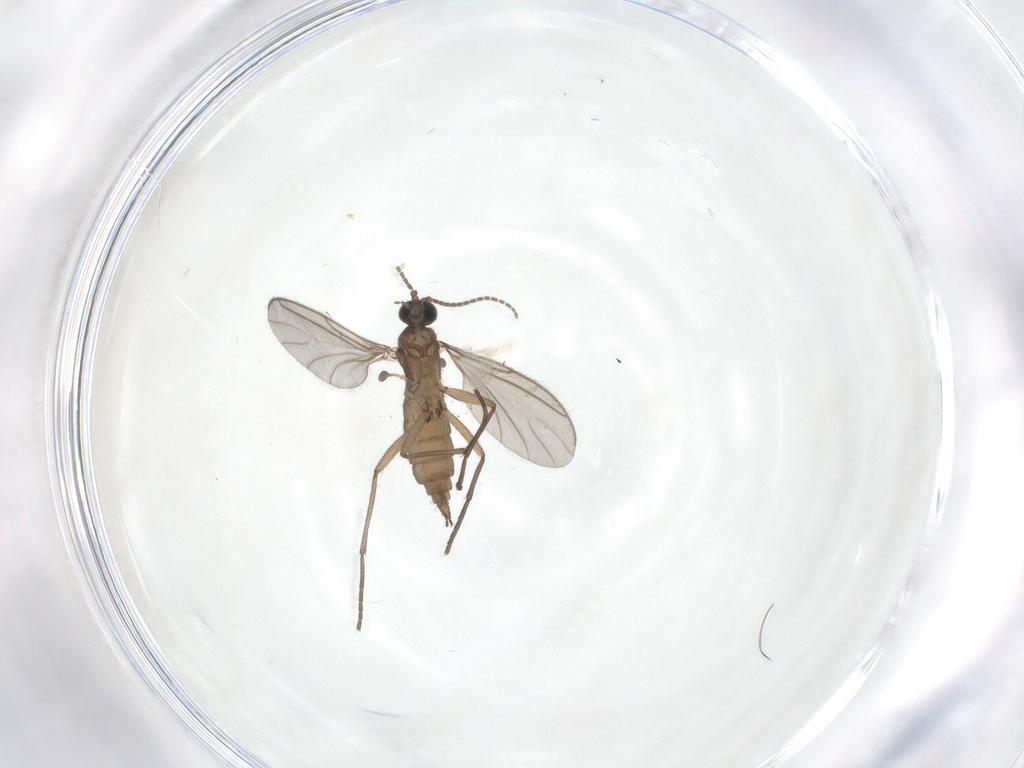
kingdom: Animalia
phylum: Arthropoda
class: Insecta
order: Diptera
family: Sciaridae
